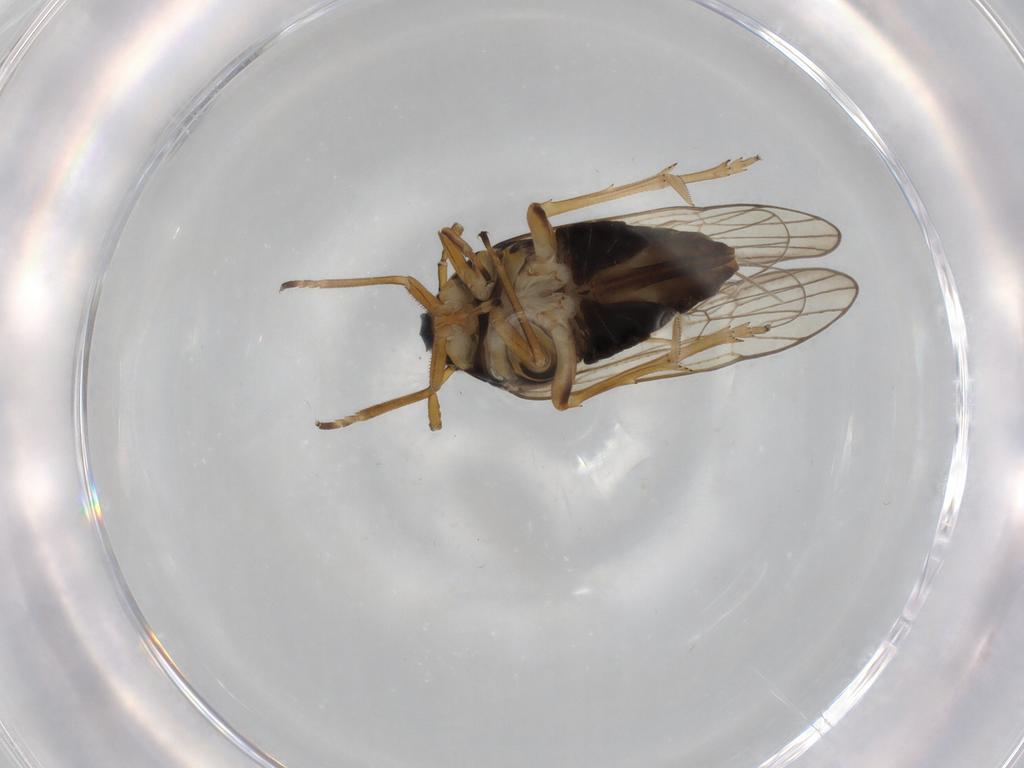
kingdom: Animalia
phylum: Arthropoda
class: Insecta
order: Hemiptera
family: Delphacidae
